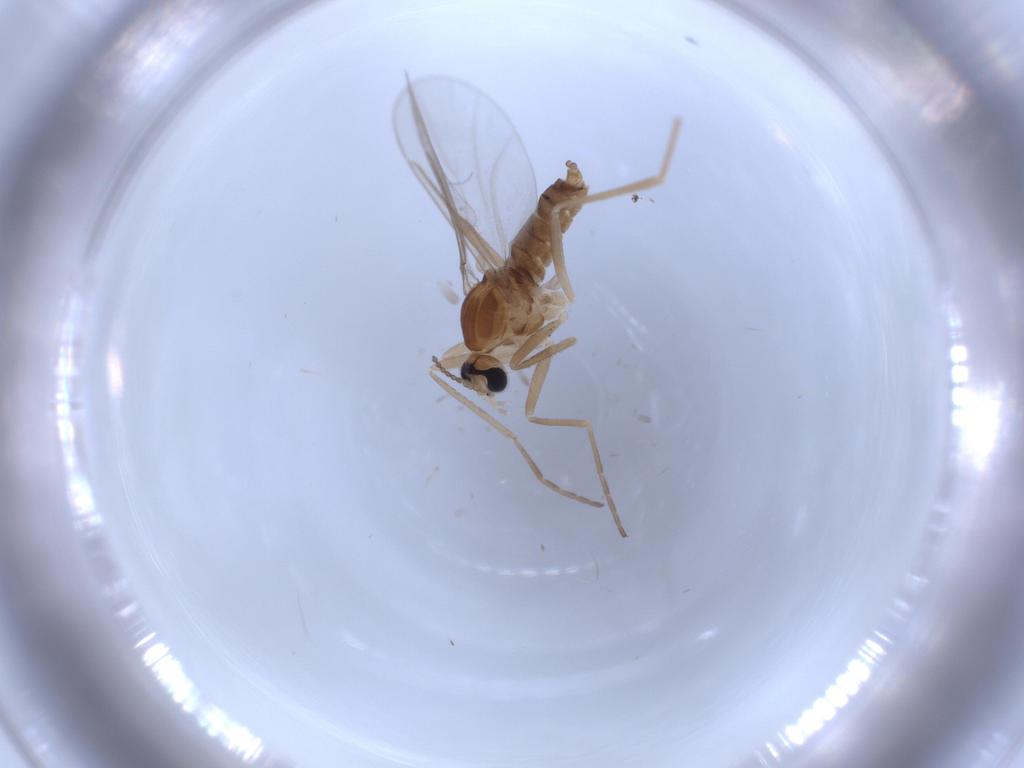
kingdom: Animalia
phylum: Arthropoda
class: Insecta
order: Diptera
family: Cecidomyiidae
